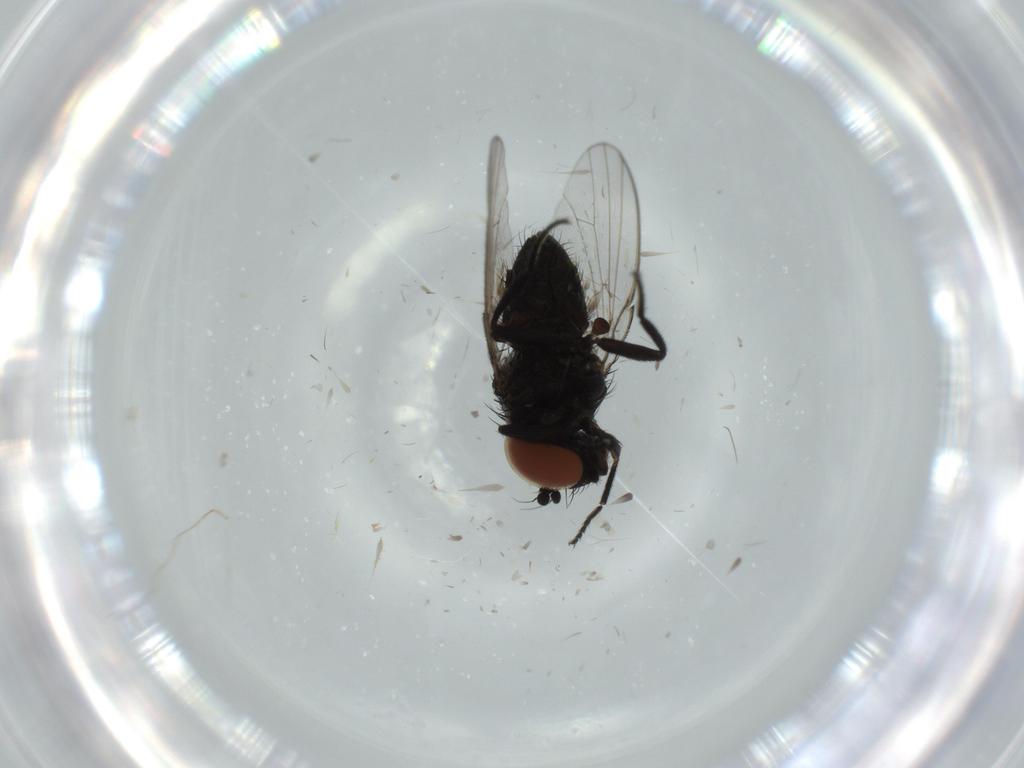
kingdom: Animalia
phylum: Arthropoda
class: Insecta
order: Diptera
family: Milichiidae
